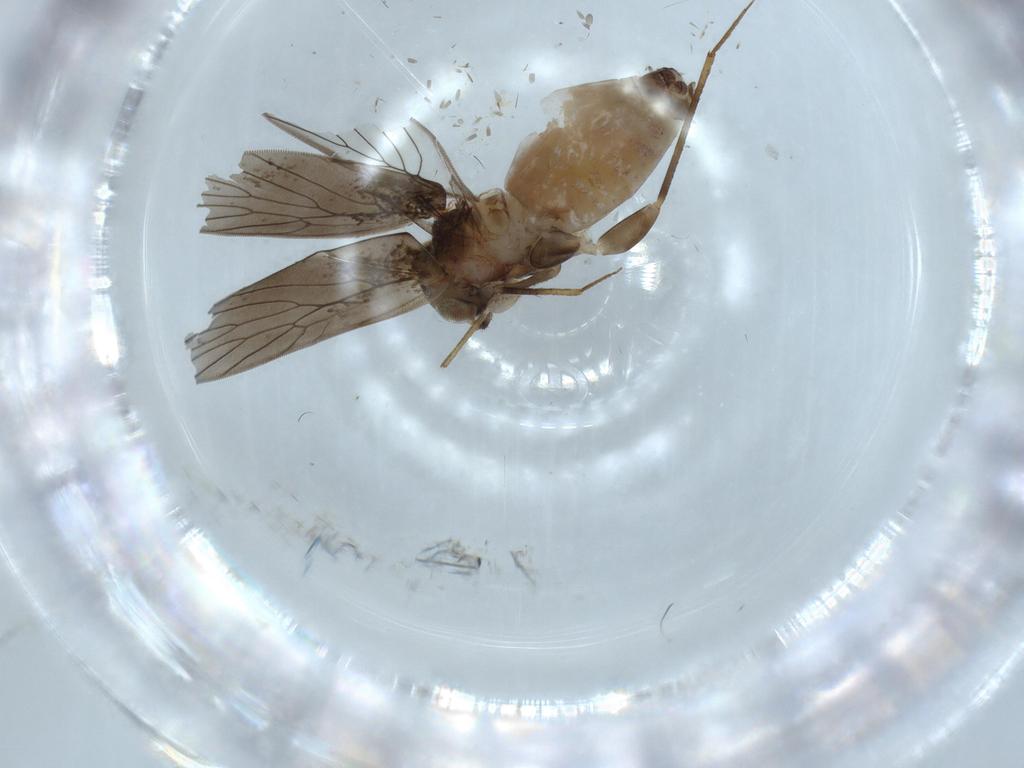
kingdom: Animalia
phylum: Arthropoda
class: Insecta
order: Psocodea
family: Lepidopsocidae
